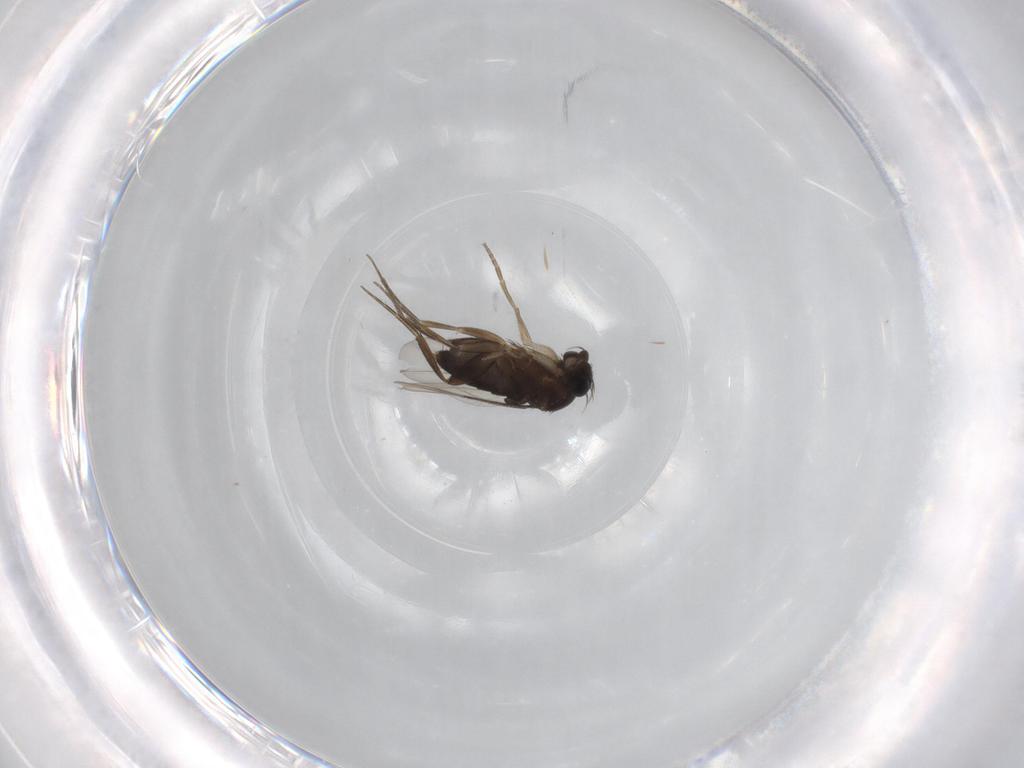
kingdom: Animalia
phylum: Arthropoda
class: Insecta
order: Diptera
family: Phoridae
